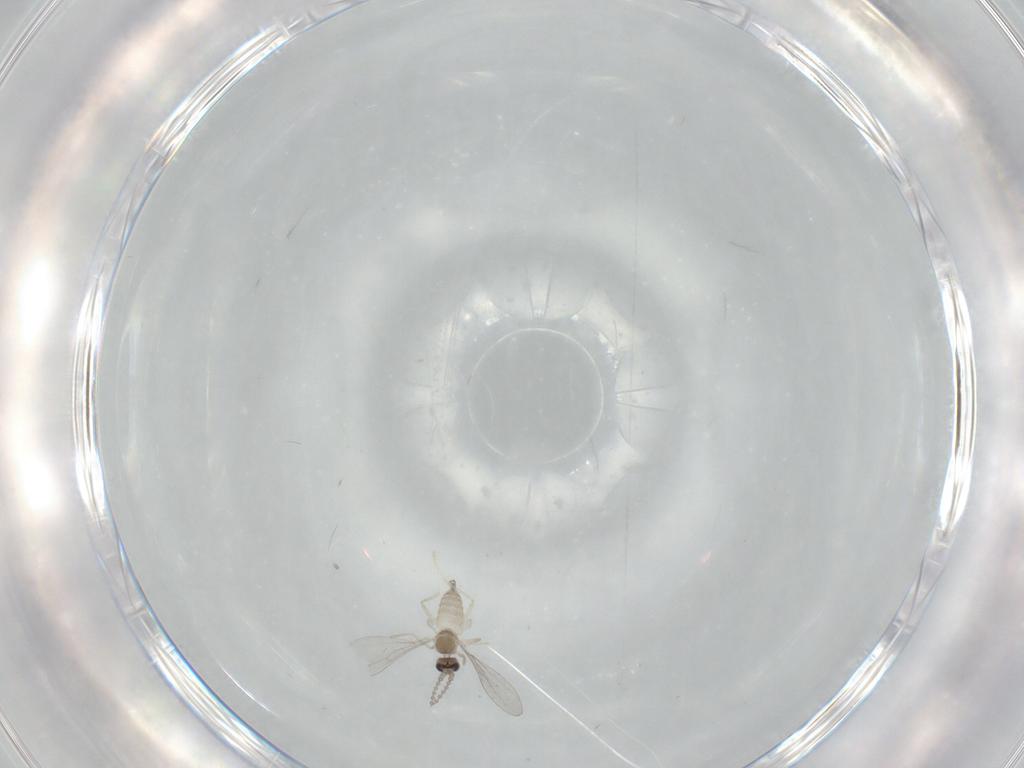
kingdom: Animalia
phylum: Arthropoda
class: Insecta
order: Diptera
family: Cecidomyiidae
